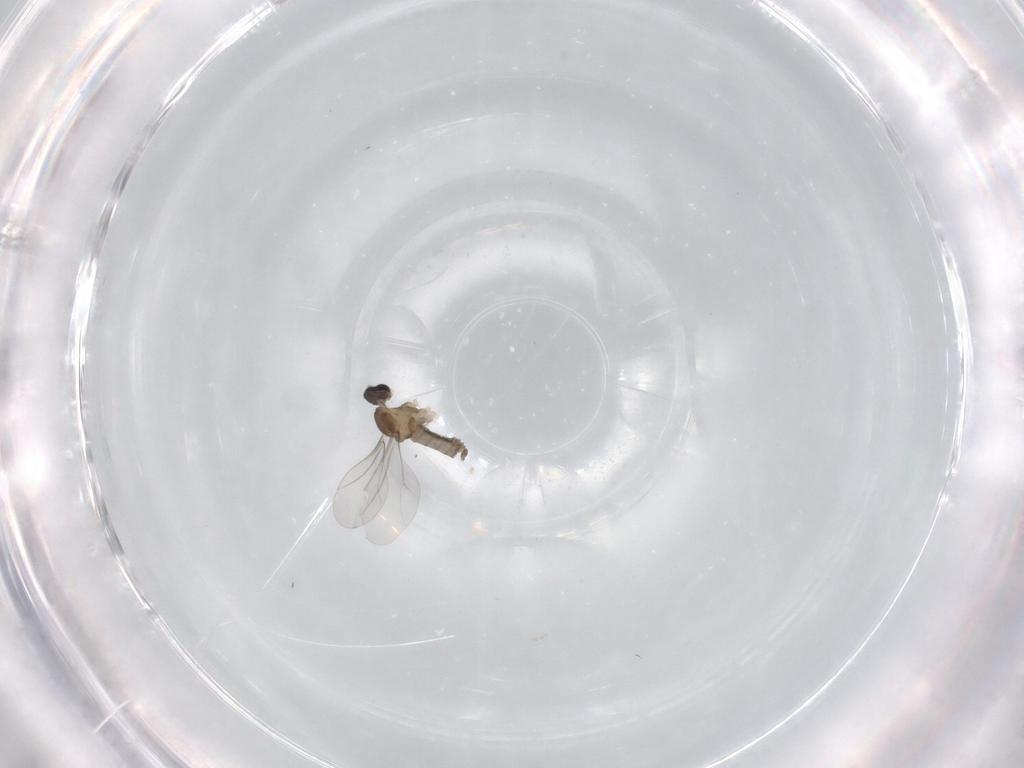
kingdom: Animalia
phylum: Arthropoda
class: Insecta
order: Diptera
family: Cecidomyiidae
